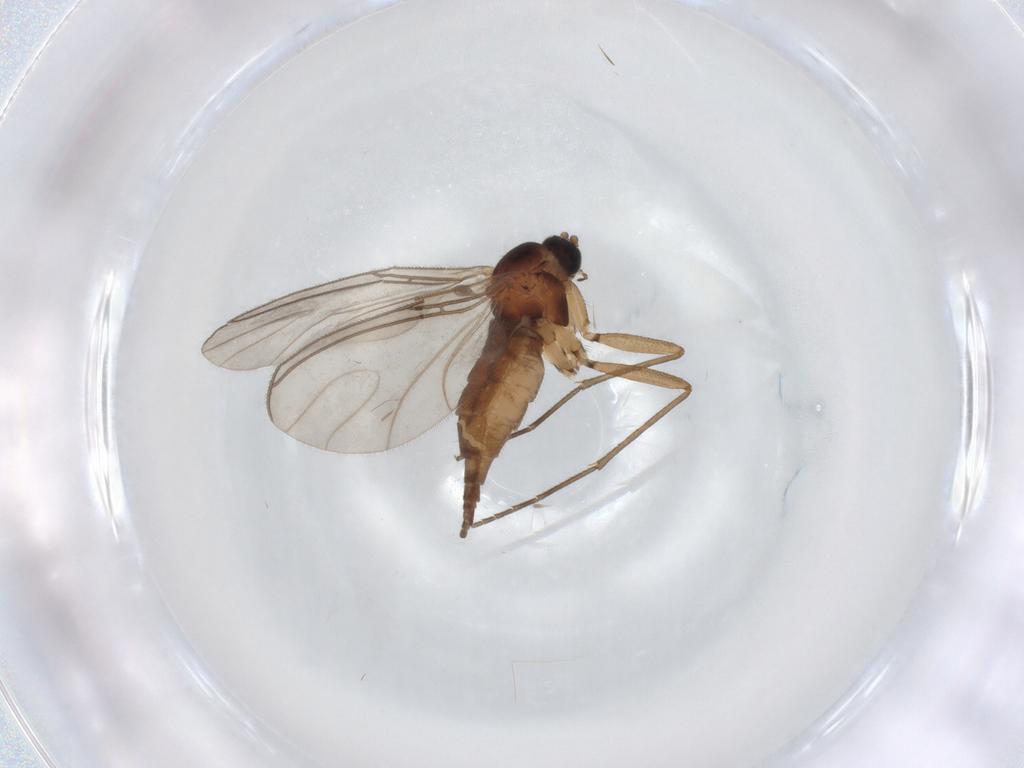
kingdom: Animalia
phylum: Arthropoda
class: Insecta
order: Diptera
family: Sciaridae
